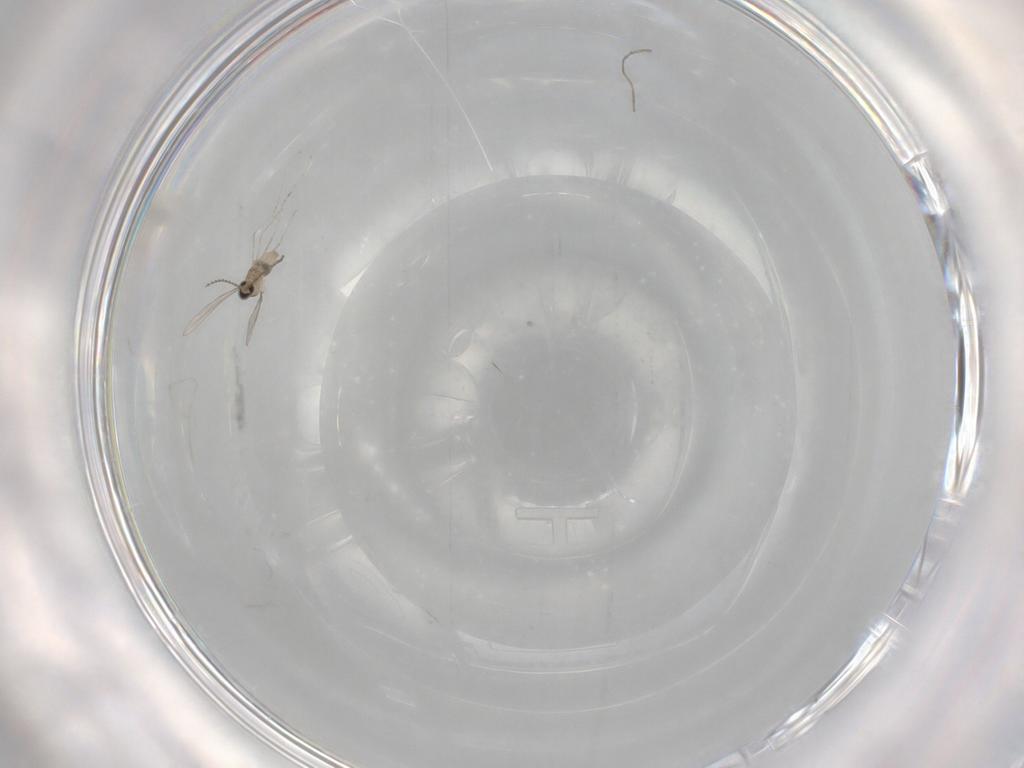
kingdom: Animalia
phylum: Arthropoda
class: Insecta
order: Diptera
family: Chironomidae
